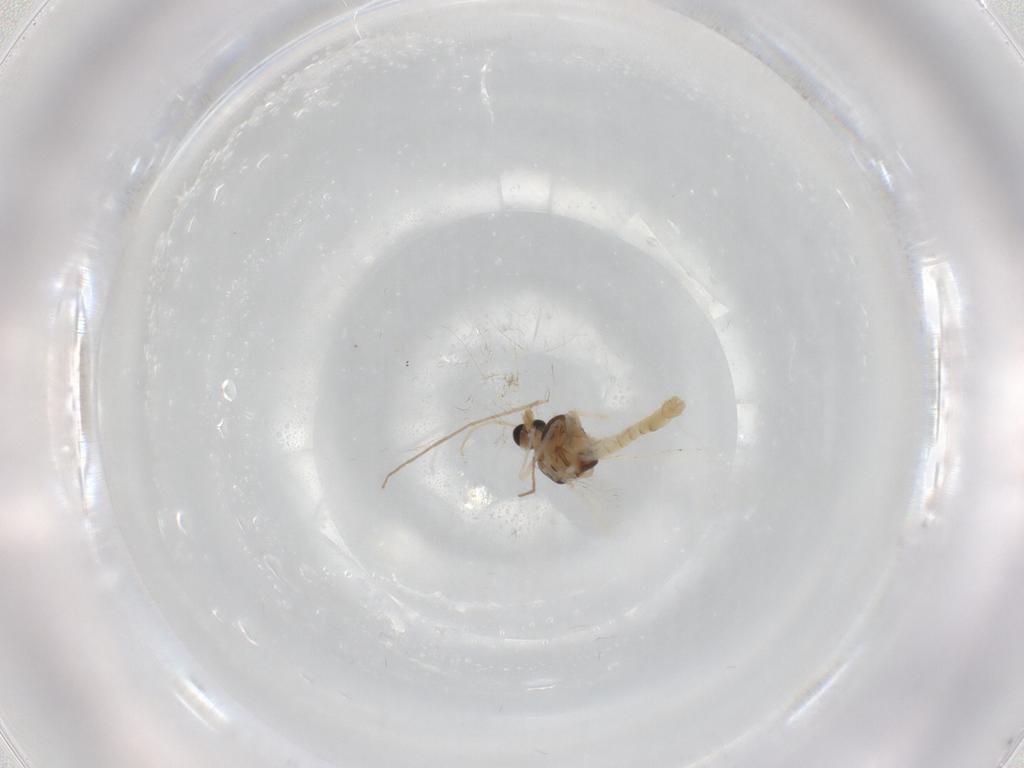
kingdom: Animalia
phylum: Arthropoda
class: Insecta
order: Diptera
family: Chironomidae
